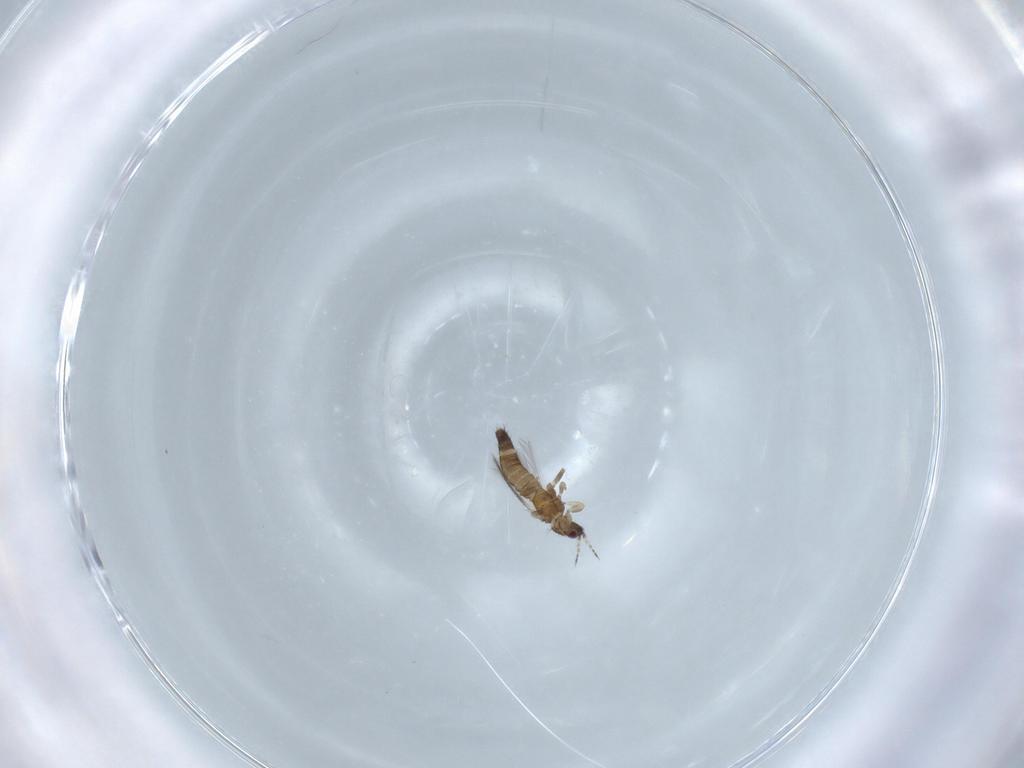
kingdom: Animalia
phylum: Arthropoda
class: Insecta
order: Thysanoptera
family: Thripidae
